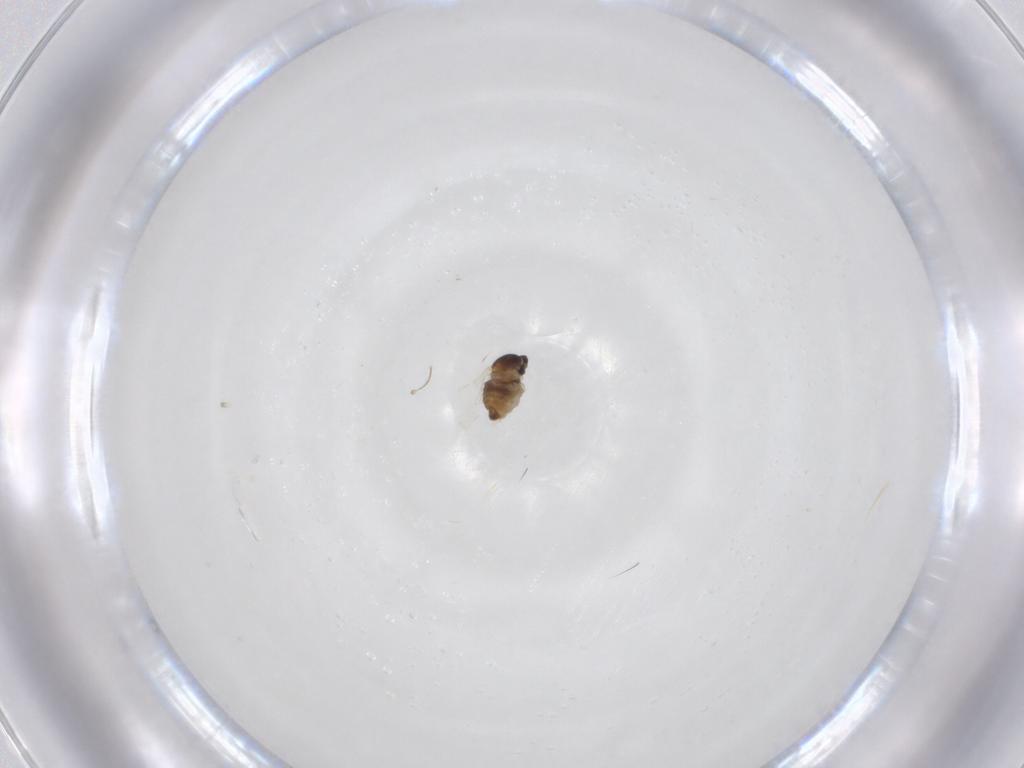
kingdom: Animalia
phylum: Arthropoda
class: Insecta
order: Diptera
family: Cecidomyiidae
